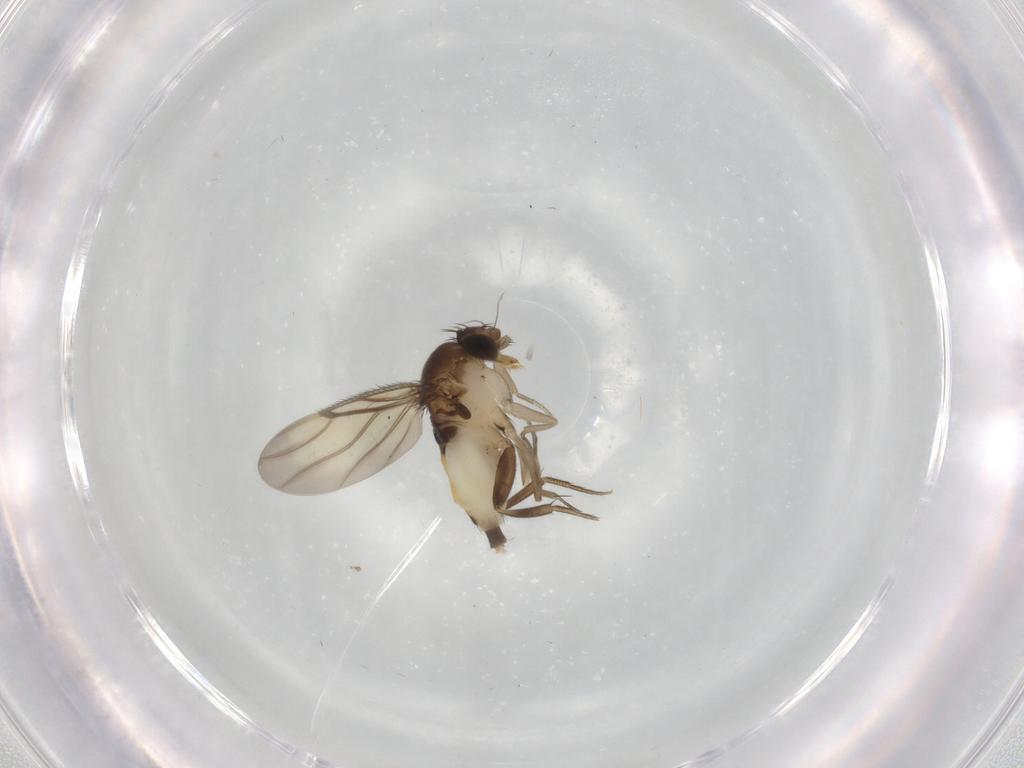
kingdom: Animalia
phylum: Arthropoda
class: Insecta
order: Diptera
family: Phoridae
